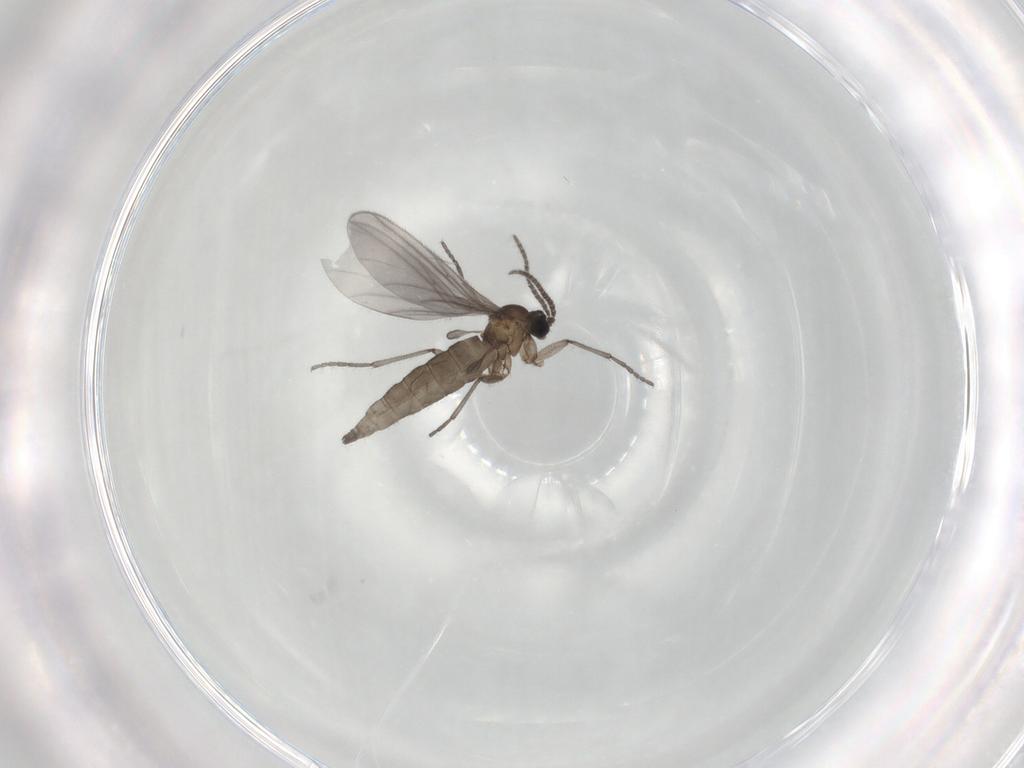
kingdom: Animalia
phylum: Arthropoda
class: Insecta
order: Diptera
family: Sciaridae
